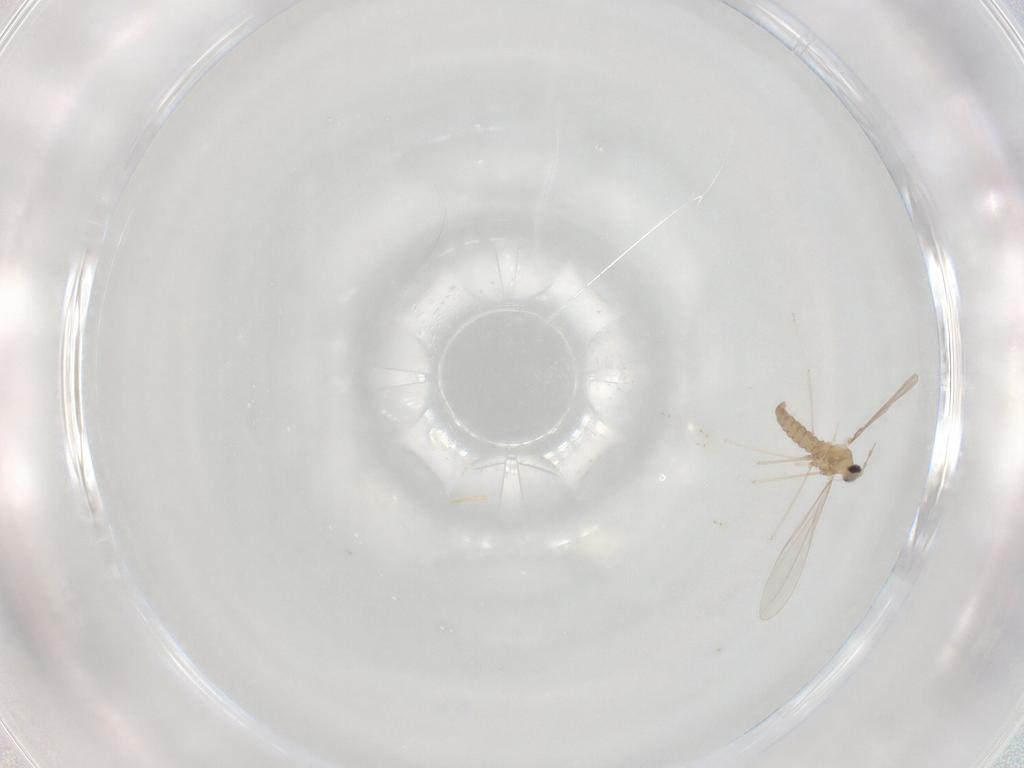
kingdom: Animalia
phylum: Arthropoda
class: Insecta
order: Diptera
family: Cecidomyiidae
